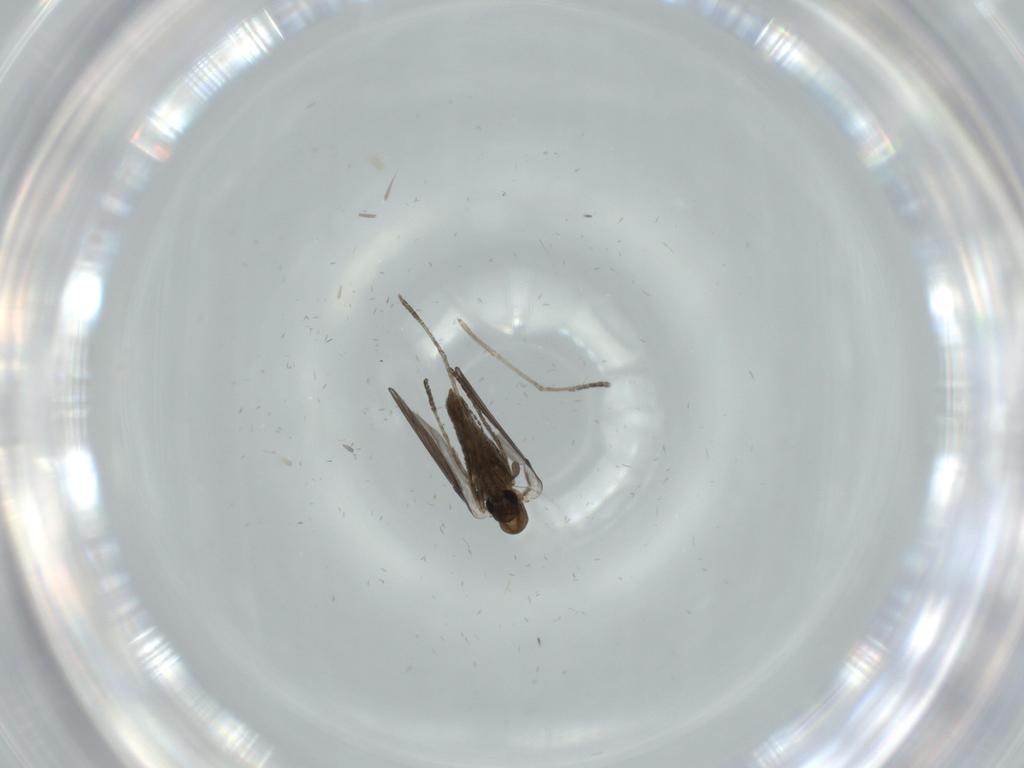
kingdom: Animalia
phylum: Arthropoda
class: Insecta
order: Diptera
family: Psychodidae
